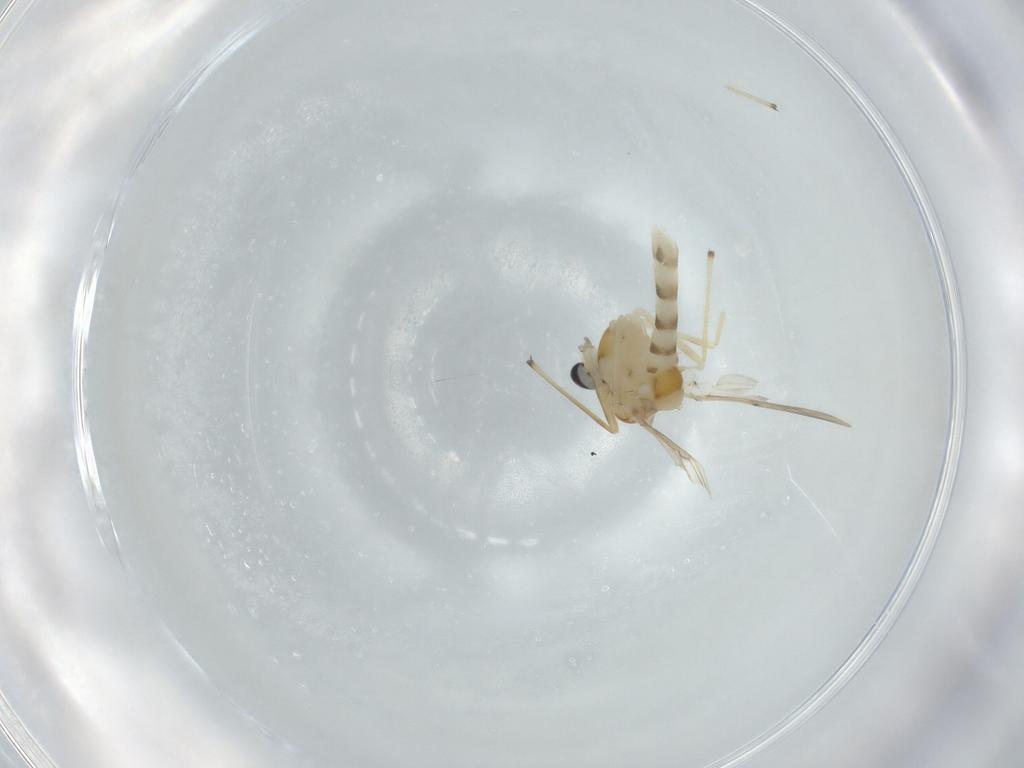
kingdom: Animalia
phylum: Arthropoda
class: Insecta
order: Diptera
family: Chironomidae
